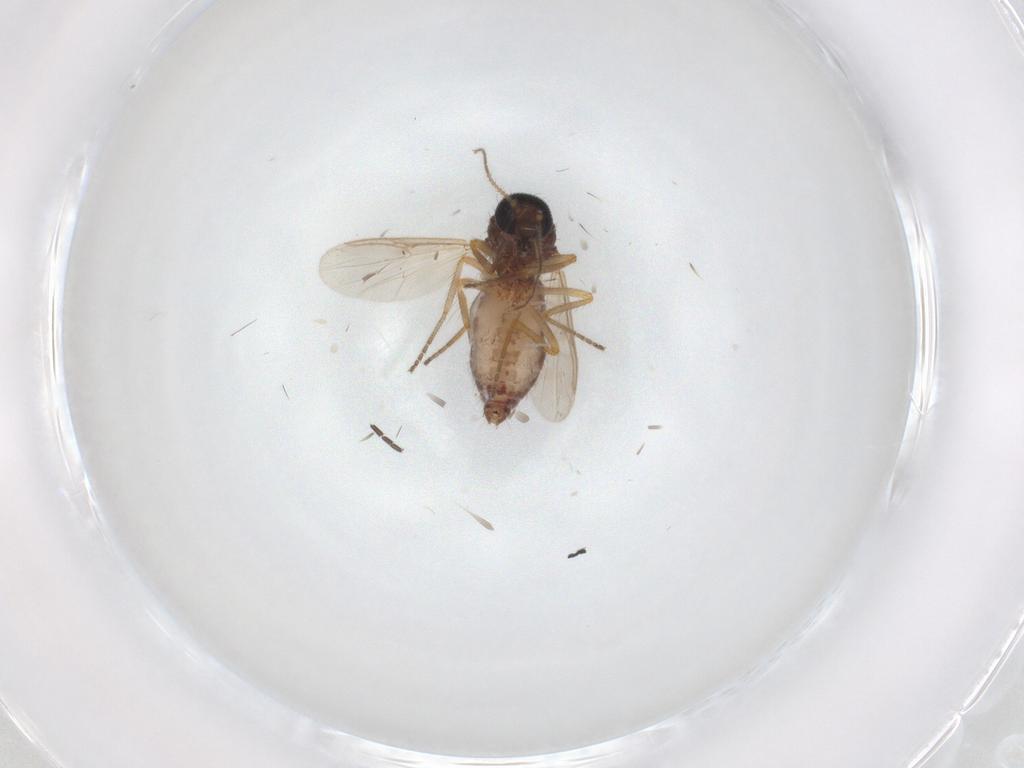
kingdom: Animalia
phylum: Arthropoda
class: Insecta
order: Diptera
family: Ceratopogonidae
